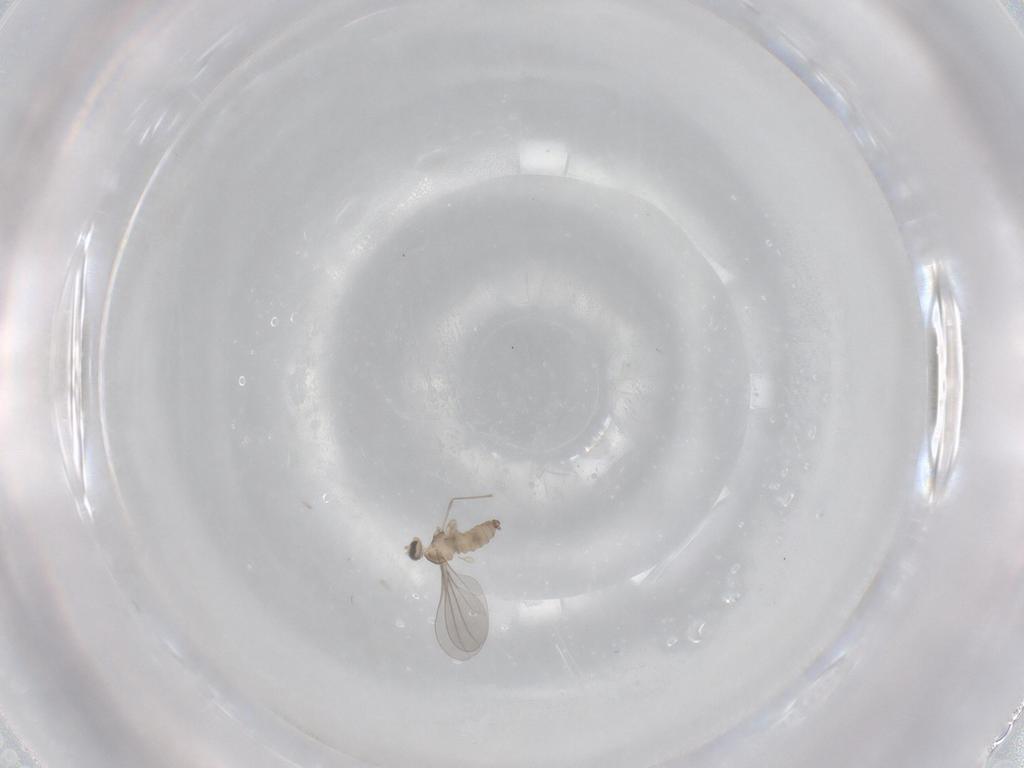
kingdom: Animalia
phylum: Arthropoda
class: Insecta
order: Diptera
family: Cecidomyiidae
